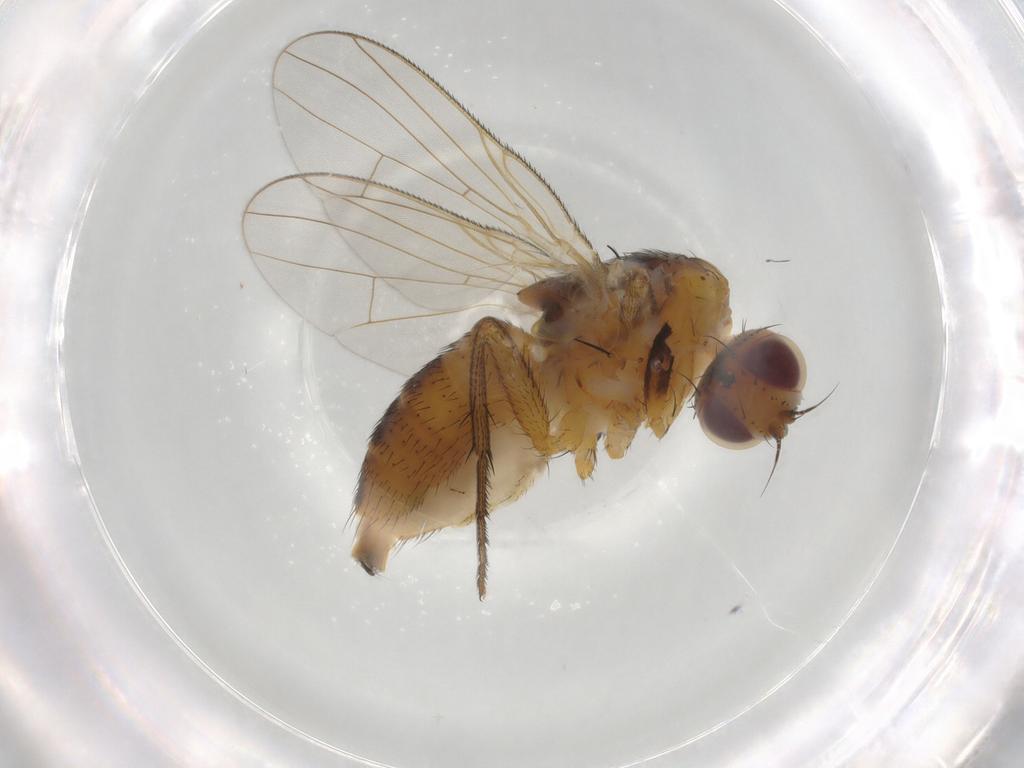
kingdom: Animalia
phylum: Arthropoda
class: Insecta
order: Diptera
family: Muscidae
